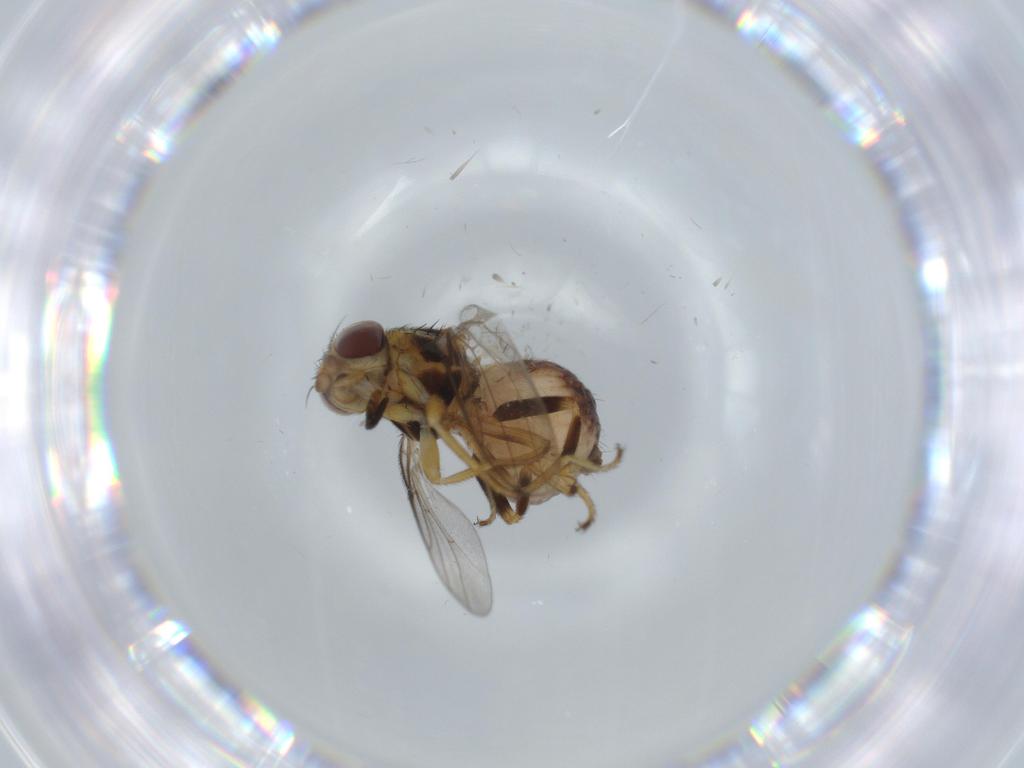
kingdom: Animalia
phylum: Arthropoda
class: Insecta
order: Diptera
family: Chloropidae
